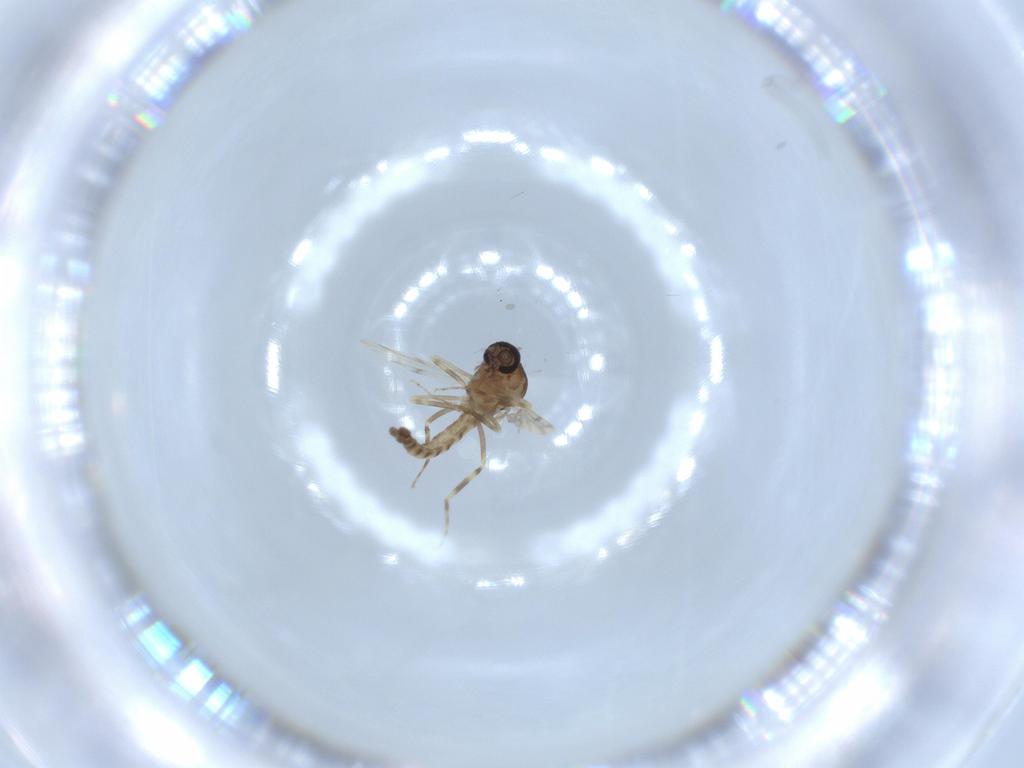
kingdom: Animalia
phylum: Arthropoda
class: Insecta
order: Diptera
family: Ceratopogonidae
